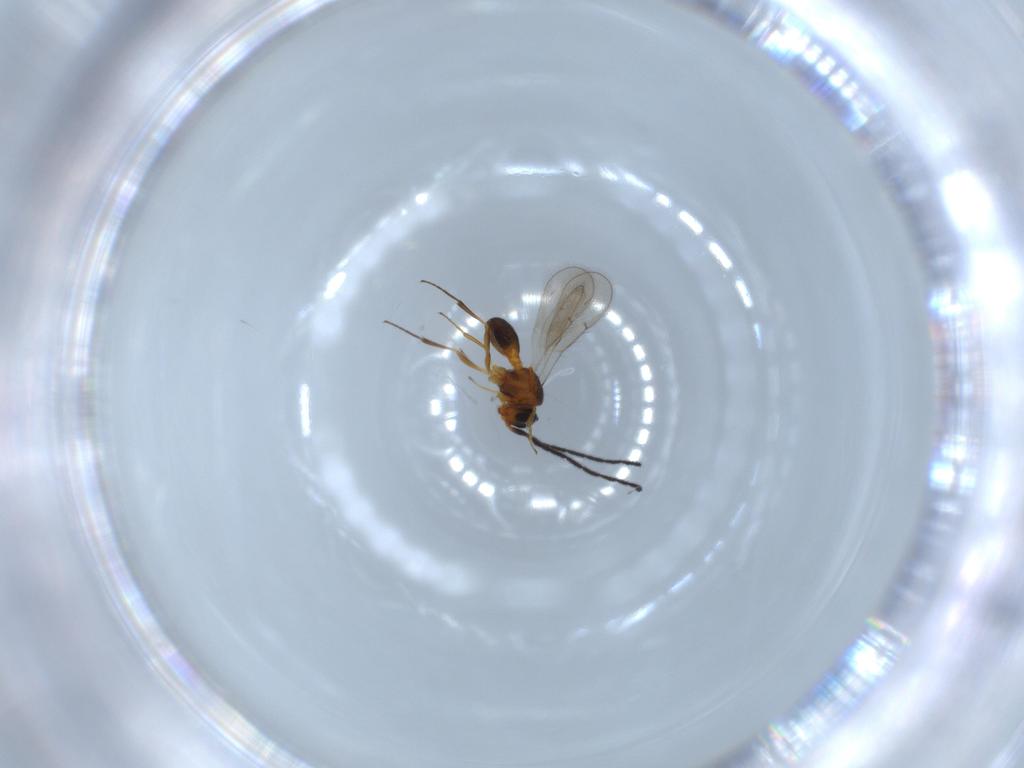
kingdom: Animalia
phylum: Arthropoda
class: Insecta
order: Hymenoptera
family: Scelionidae
